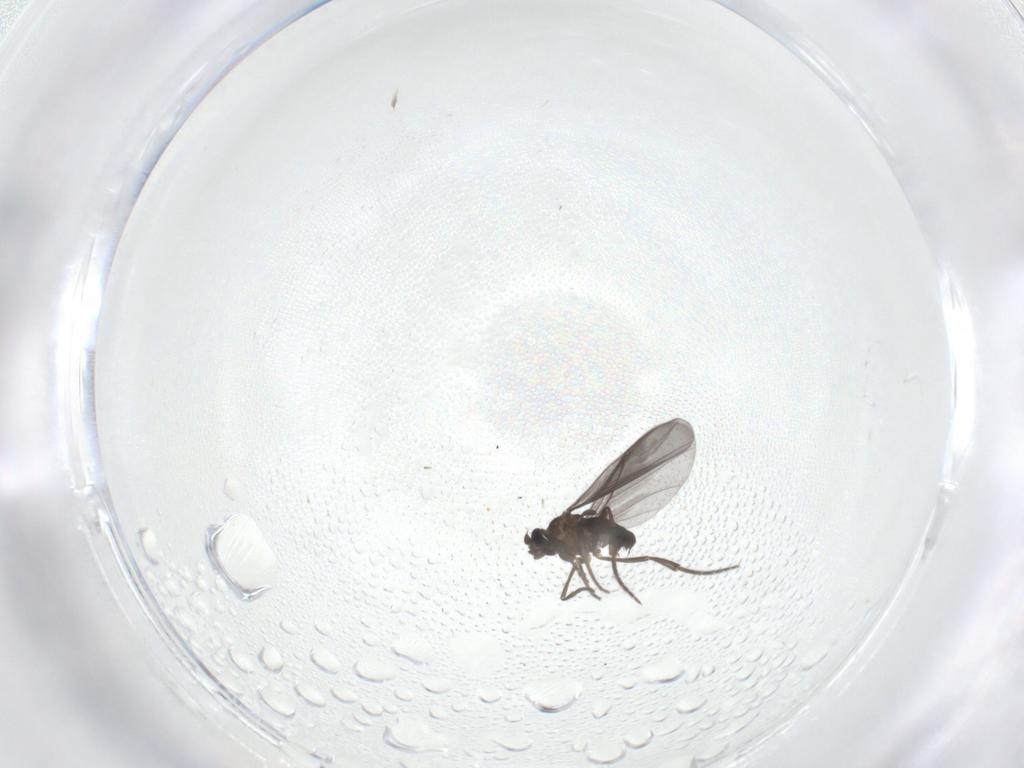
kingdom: Animalia
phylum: Arthropoda
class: Insecta
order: Diptera
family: Phoridae
